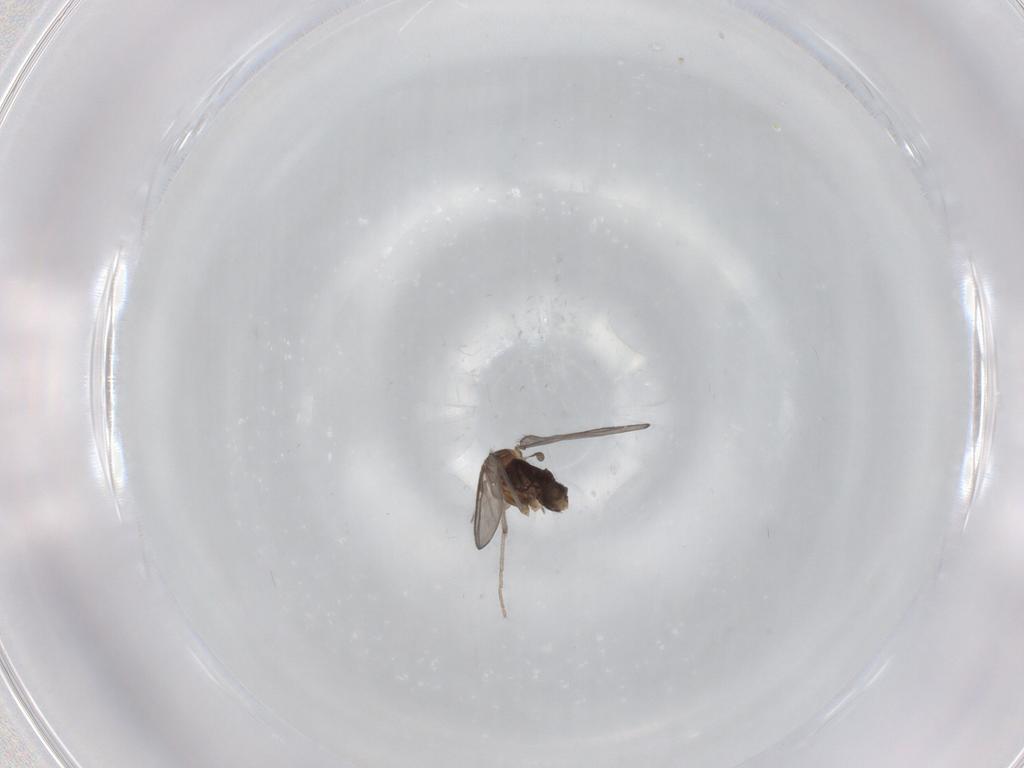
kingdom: Animalia
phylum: Arthropoda
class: Insecta
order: Diptera
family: Chironomidae
